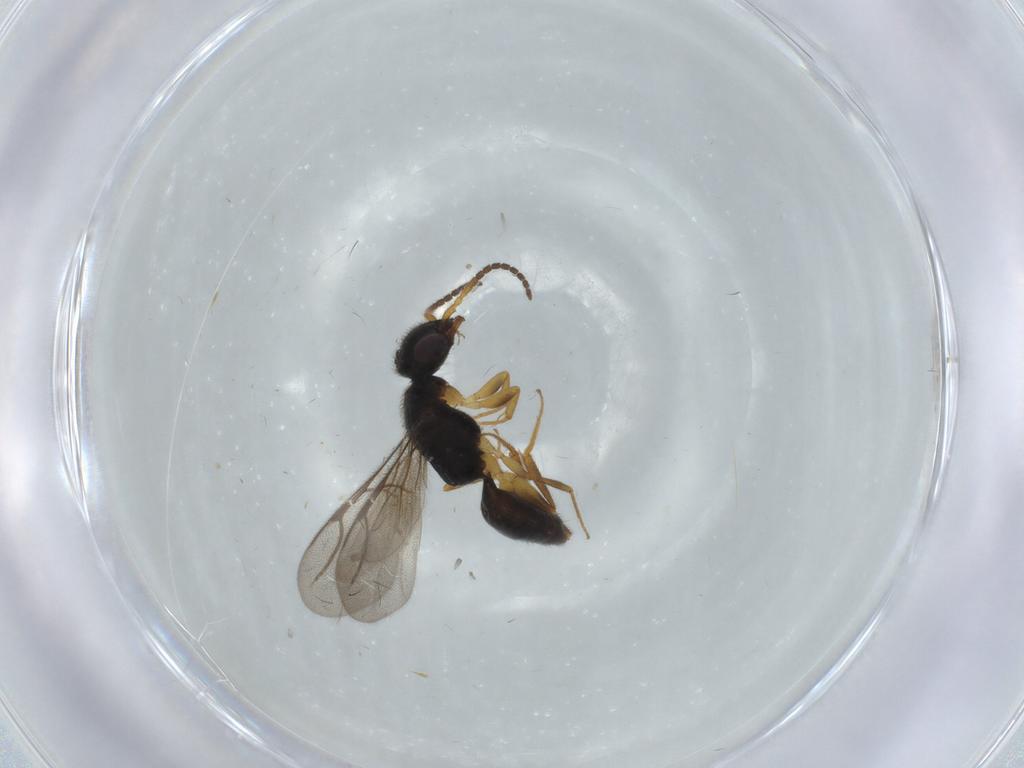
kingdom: Animalia
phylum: Arthropoda
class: Insecta
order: Hymenoptera
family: Bethylidae
